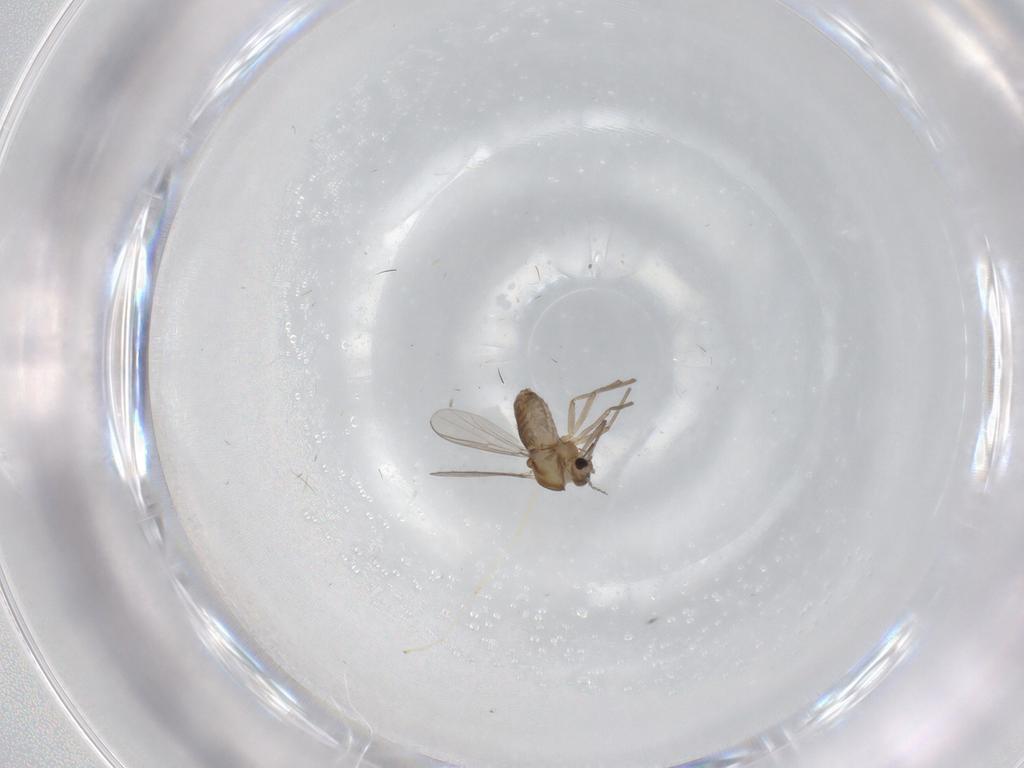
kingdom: Animalia
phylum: Arthropoda
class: Insecta
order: Diptera
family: Chironomidae
